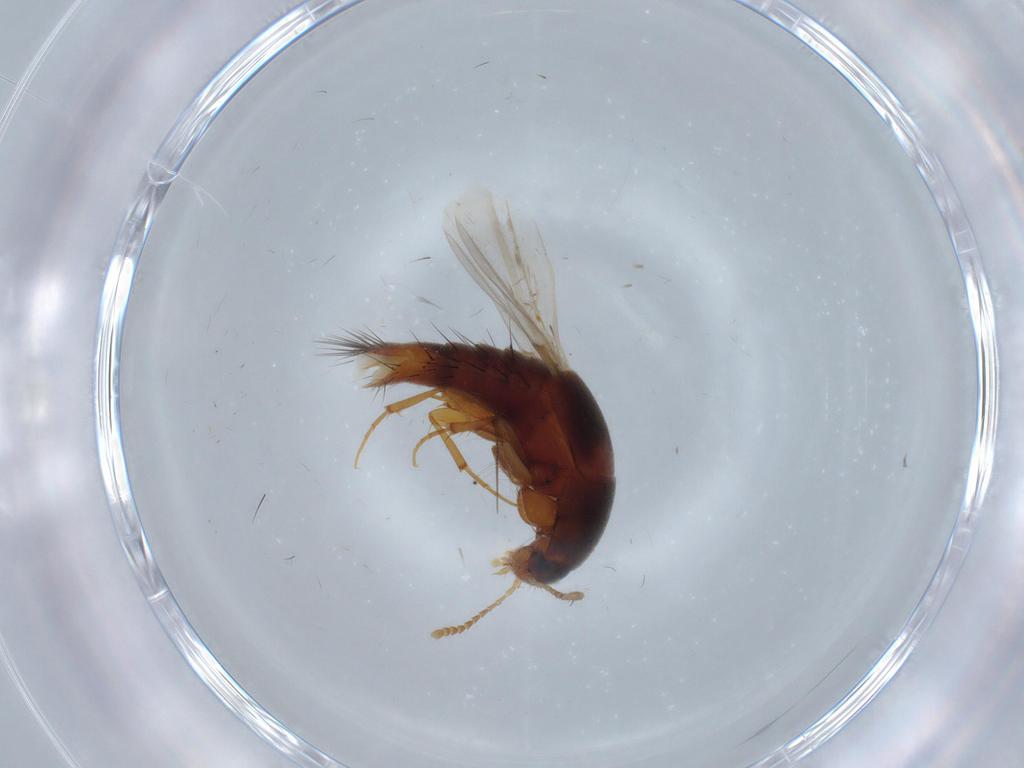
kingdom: Animalia
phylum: Arthropoda
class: Insecta
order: Coleoptera
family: Staphylinidae
